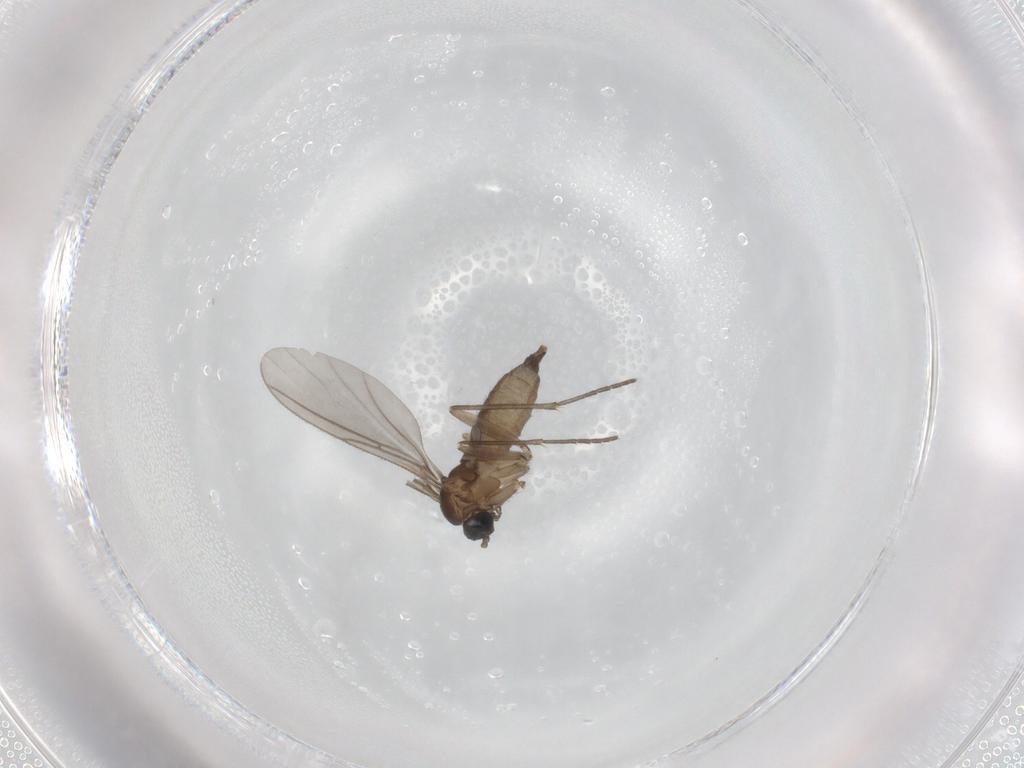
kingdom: Animalia
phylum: Arthropoda
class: Insecta
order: Diptera
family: Sciaridae
